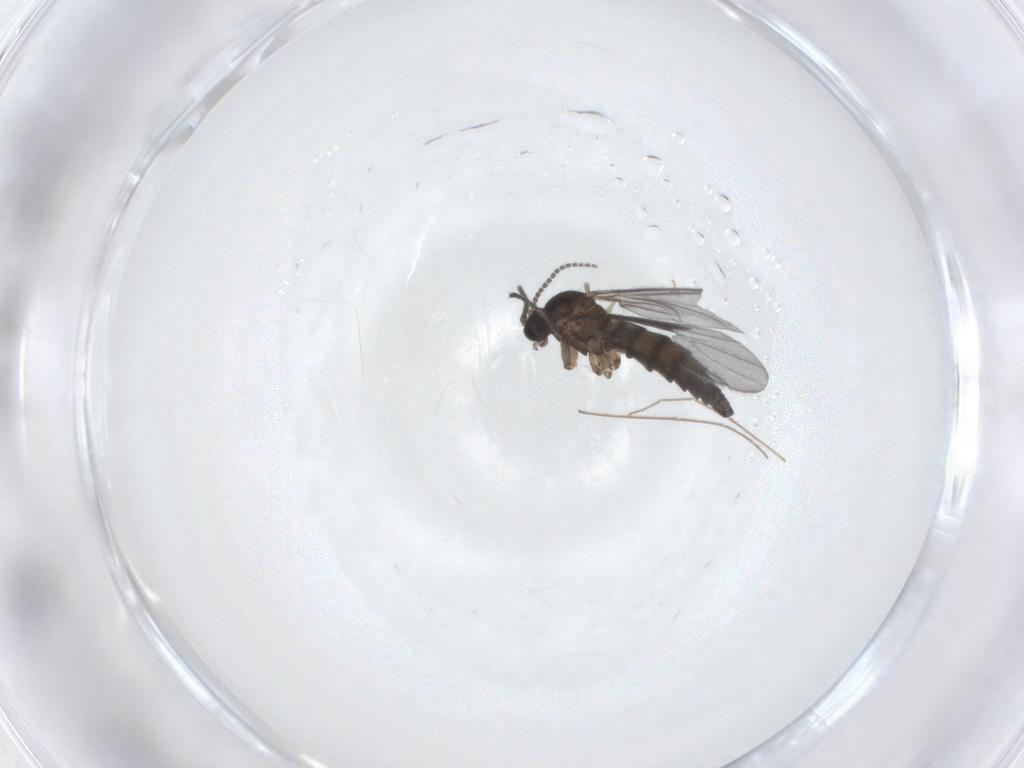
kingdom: Animalia
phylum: Arthropoda
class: Insecta
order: Diptera
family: Sciaridae
